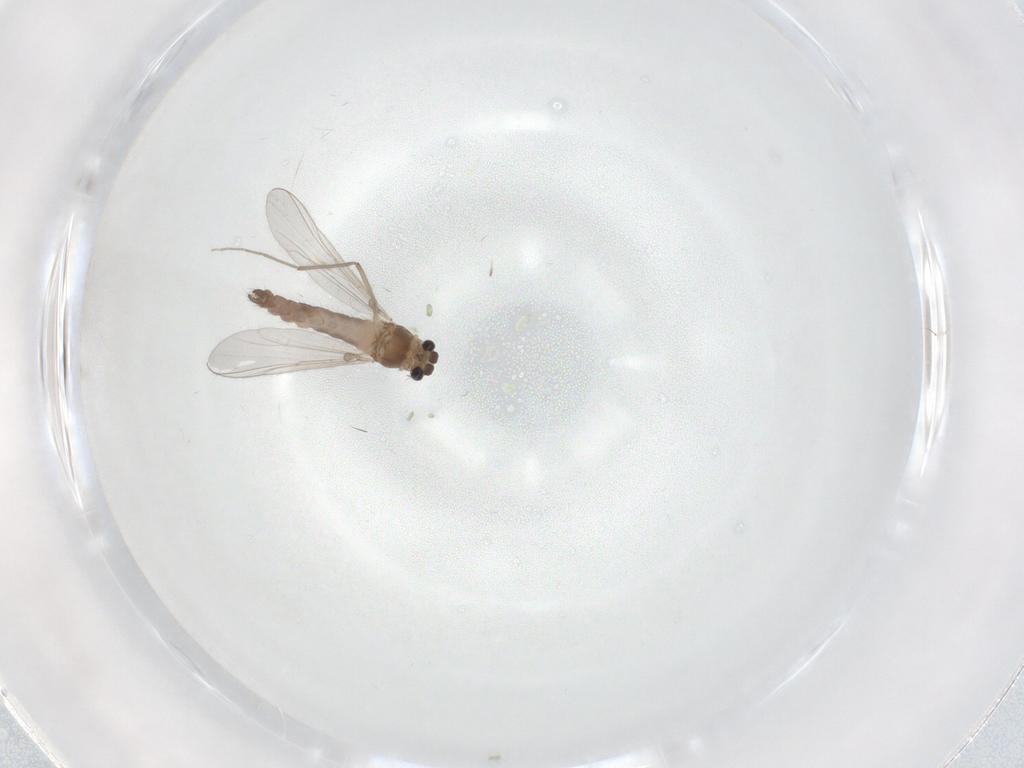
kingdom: Animalia
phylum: Arthropoda
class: Insecta
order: Diptera
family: Chironomidae
